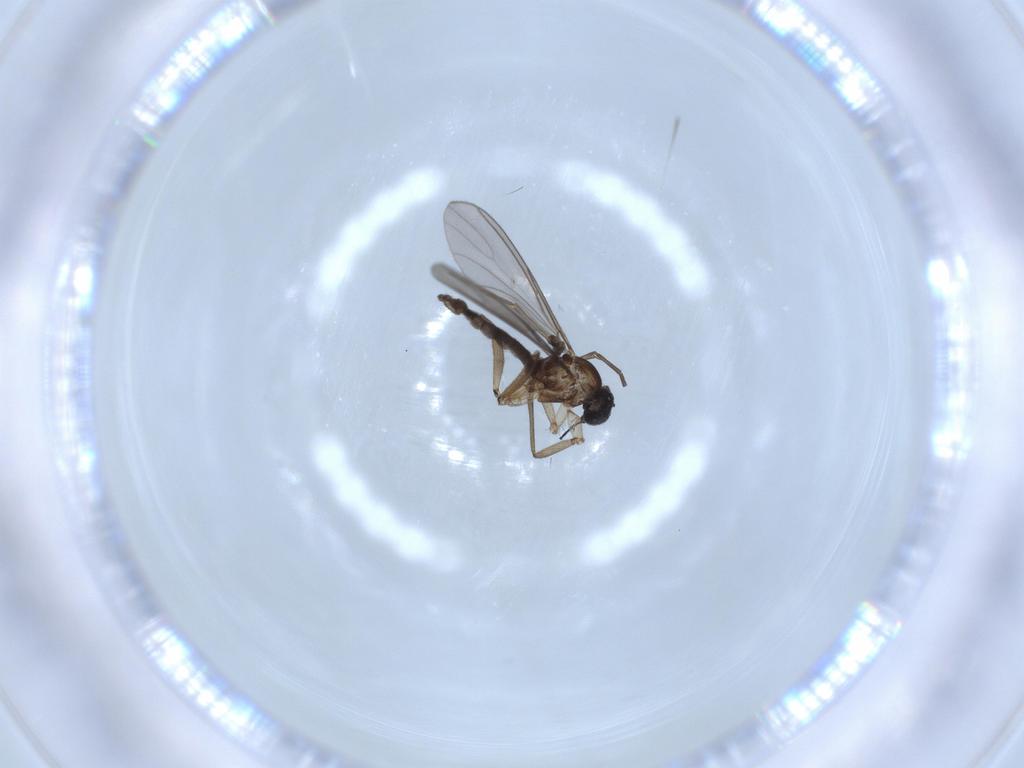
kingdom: Animalia
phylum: Arthropoda
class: Insecta
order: Diptera
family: Sciaridae
